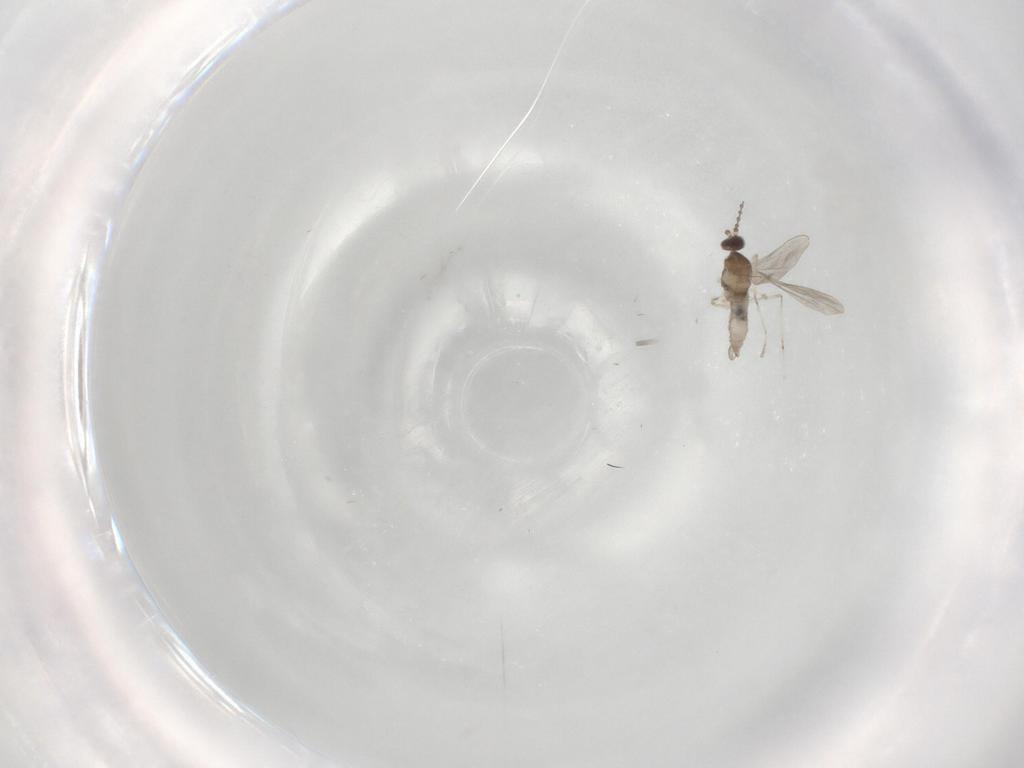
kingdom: Animalia
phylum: Arthropoda
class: Insecta
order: Diptera
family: Cecidomyiidae
